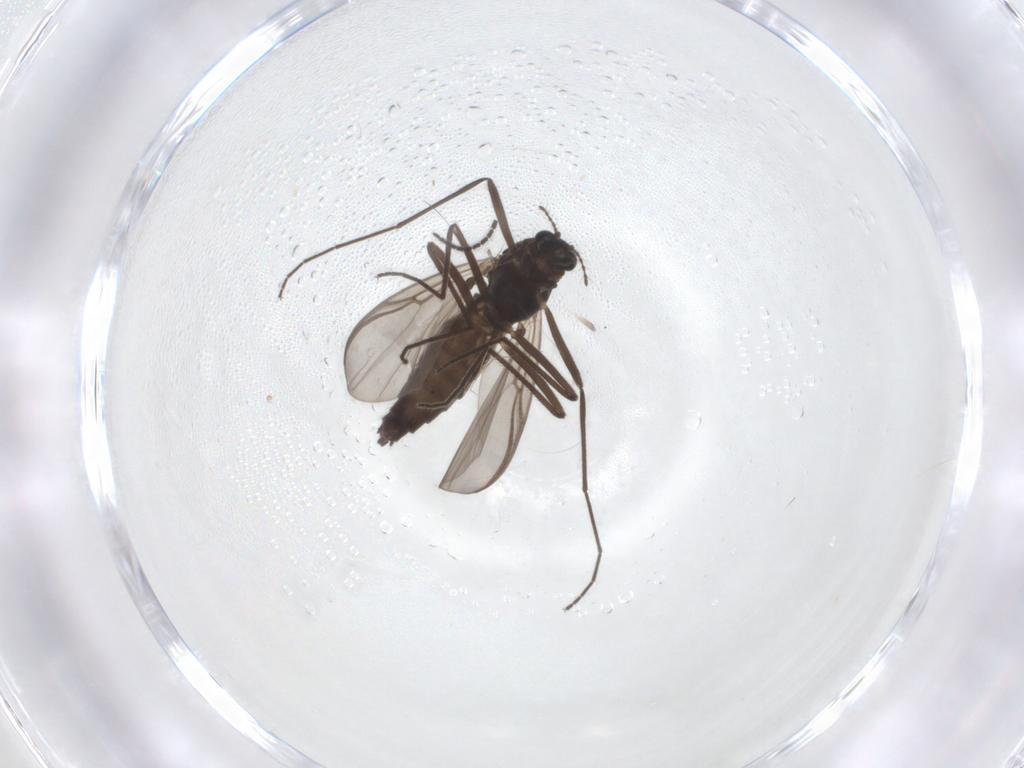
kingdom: Animalia
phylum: Arthropoda
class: Insecta
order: Diptera
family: Chironomidae
